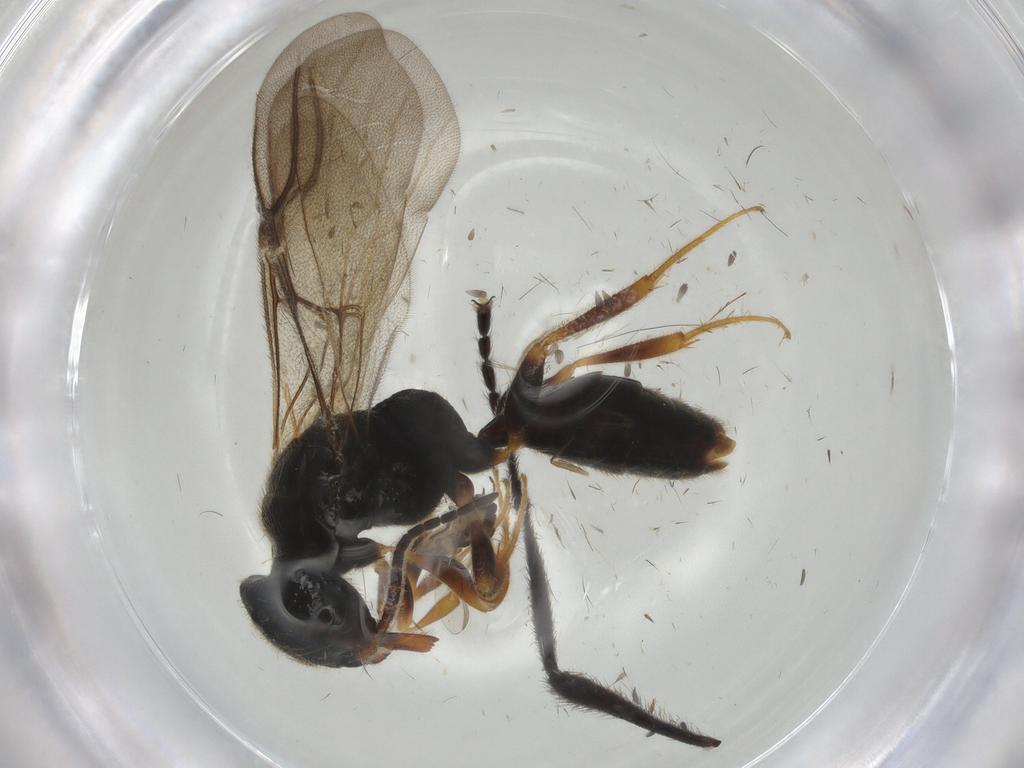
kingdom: Animalia
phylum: Arthropoda
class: Insecta
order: Hymenoptera
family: Bethylidae
